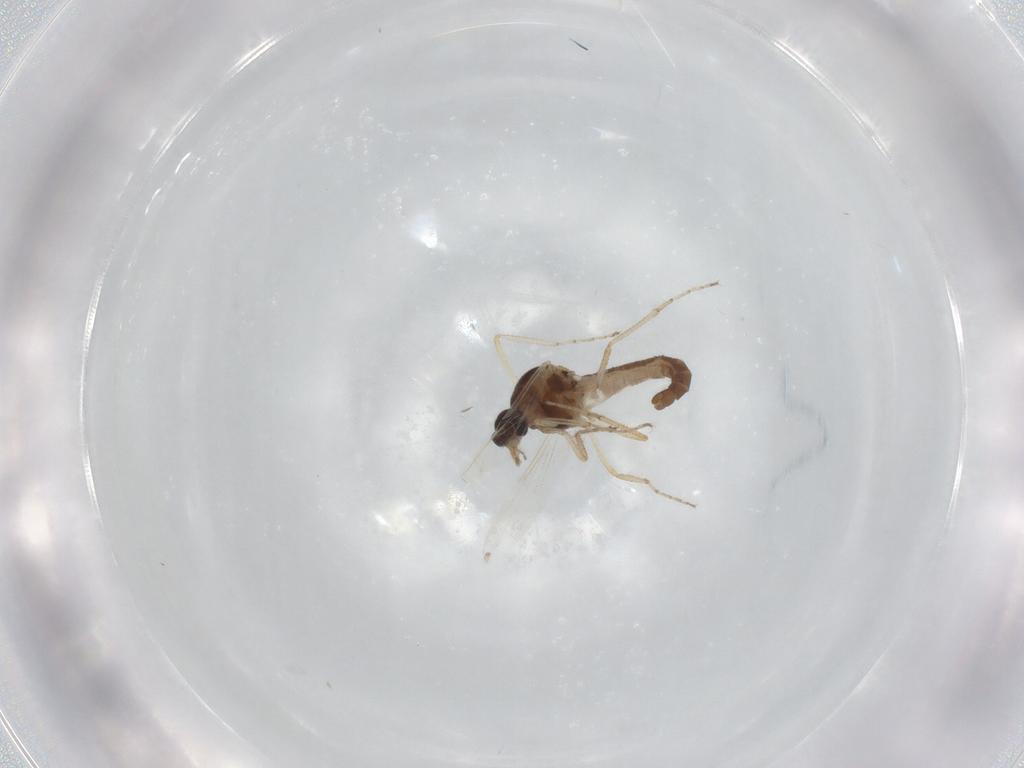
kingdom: Animalia
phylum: Arthropoda
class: Insecta
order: Diptera
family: Ceratopogonidae
